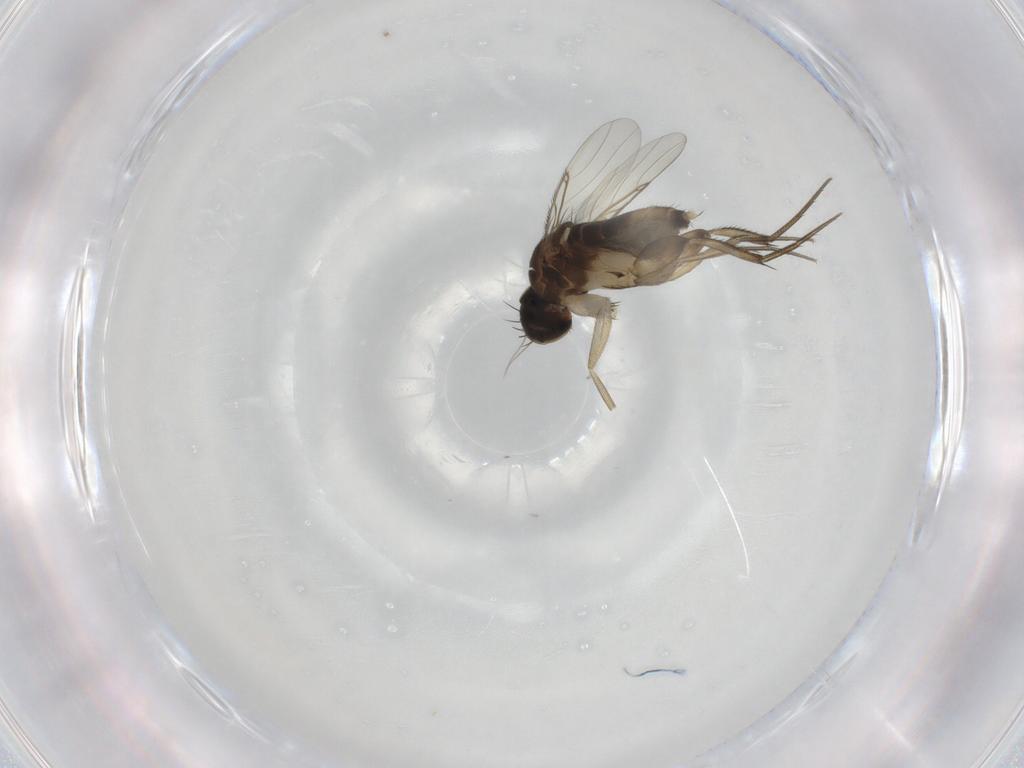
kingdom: Animalia
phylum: Arthropoda
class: Insecta
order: Diptera
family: Phoridae
